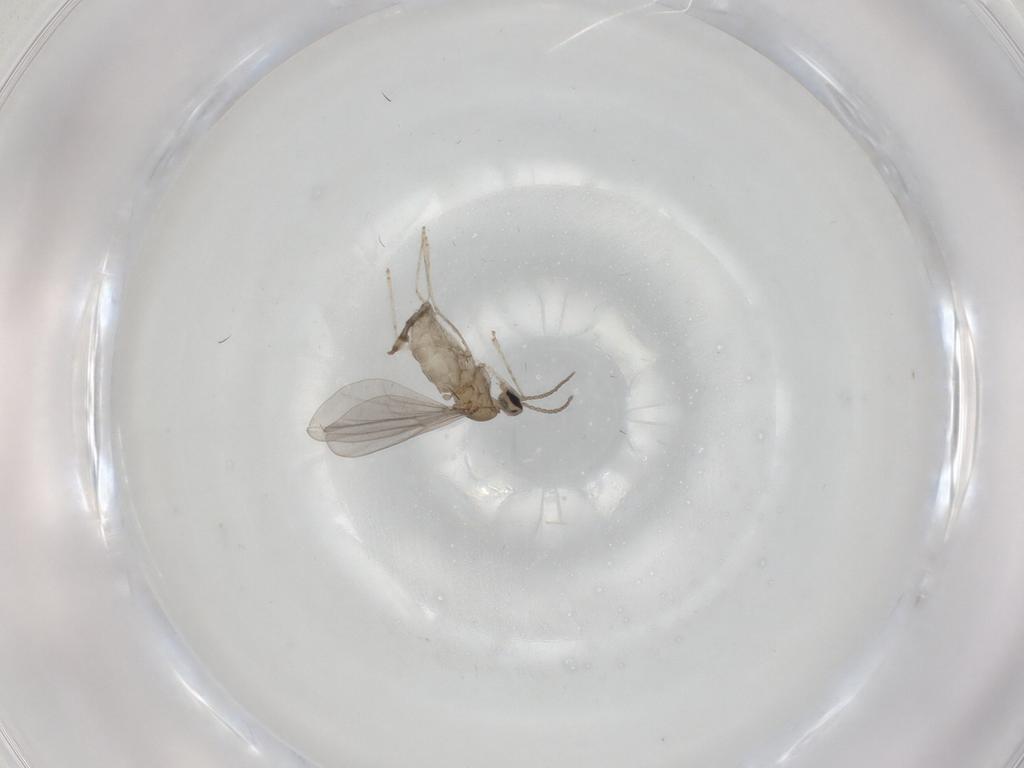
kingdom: Animalia
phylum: Arthropoda
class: Insecta
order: Diptera
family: Cecidomyiidae
